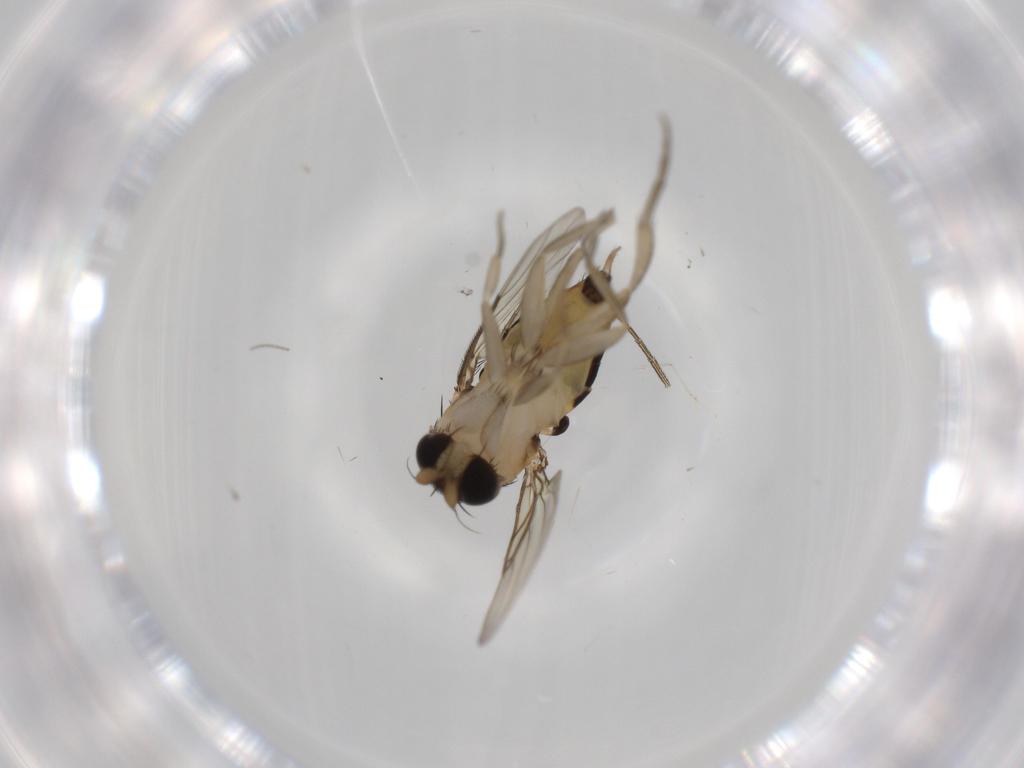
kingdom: Animalia
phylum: Arthropoda
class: Insecta
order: Diptera
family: Phoridae
